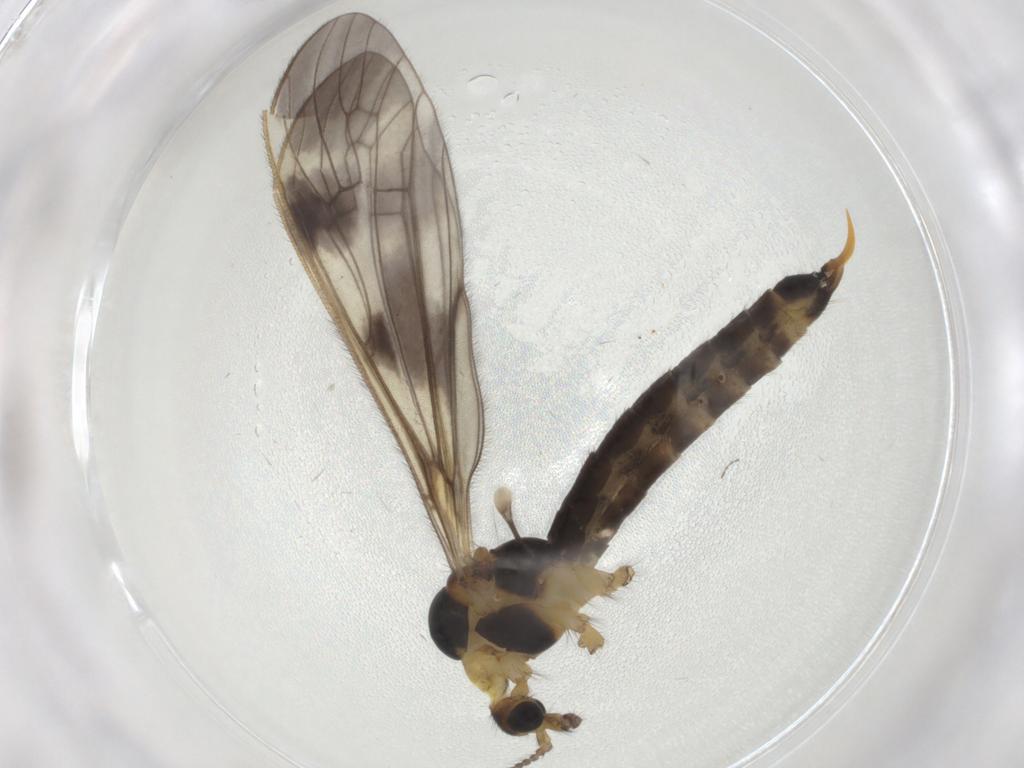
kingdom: Animalia
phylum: Arthropoda
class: Insecta
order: Diptera
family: Limoniidae
